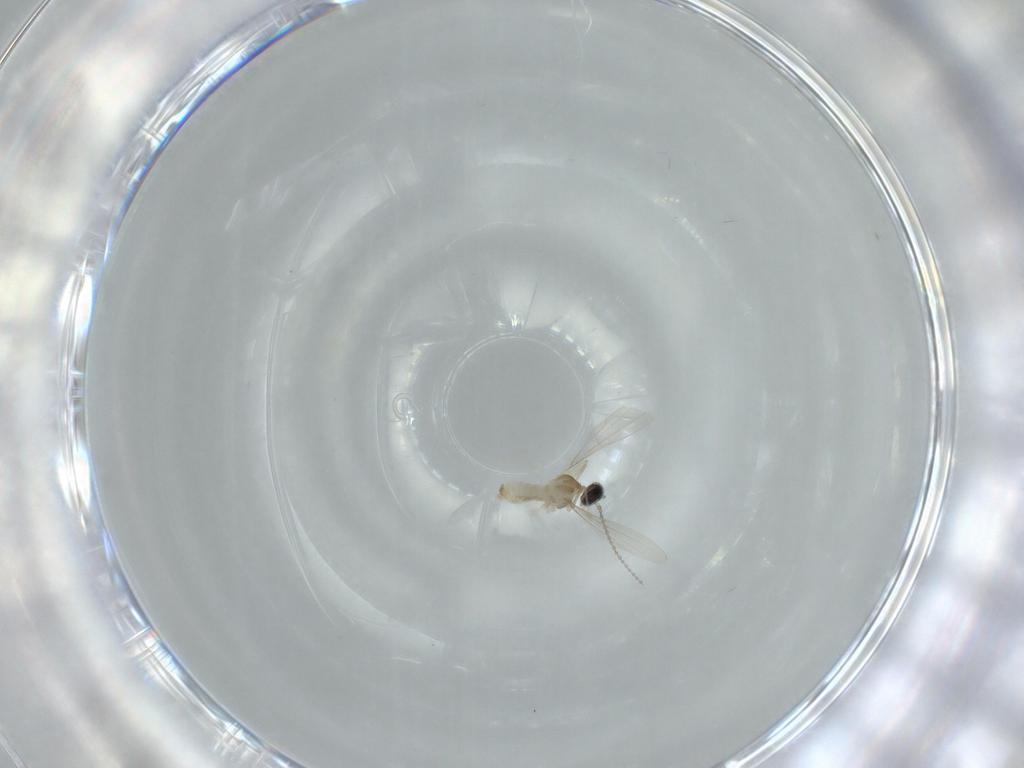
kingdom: Animalia
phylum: Arthropoda
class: Insecta
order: Diptera
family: Cecidomyiidae
